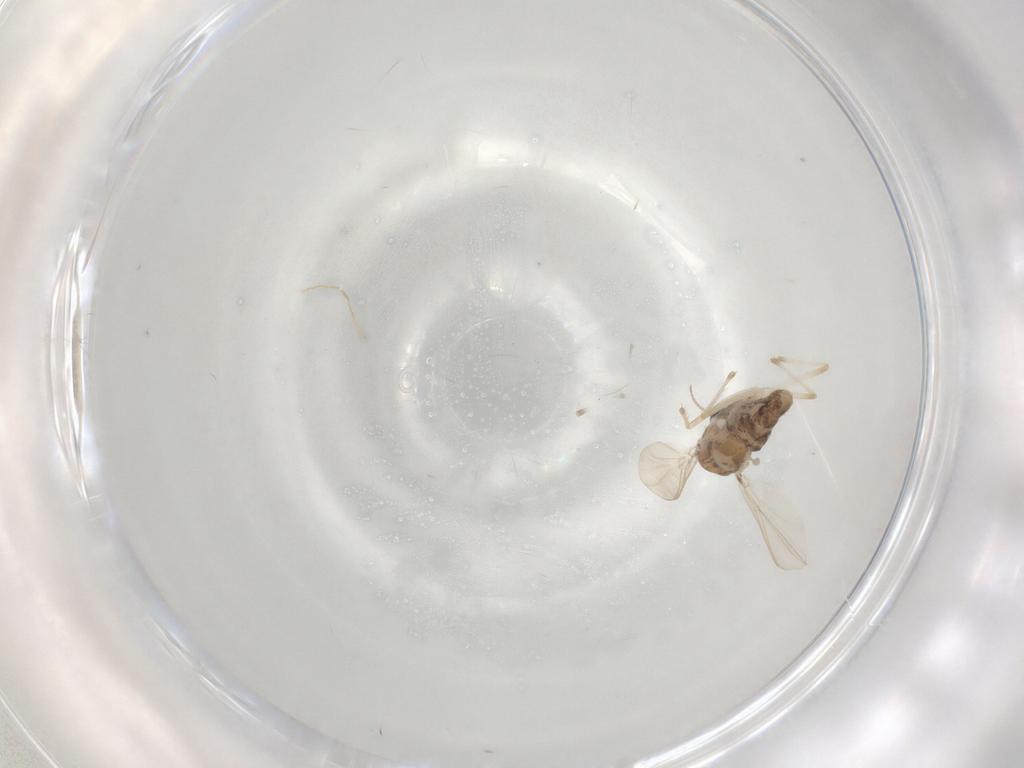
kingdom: Animalia
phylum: Arthropoda
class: Insecta
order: Diptera
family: Chironomidae
